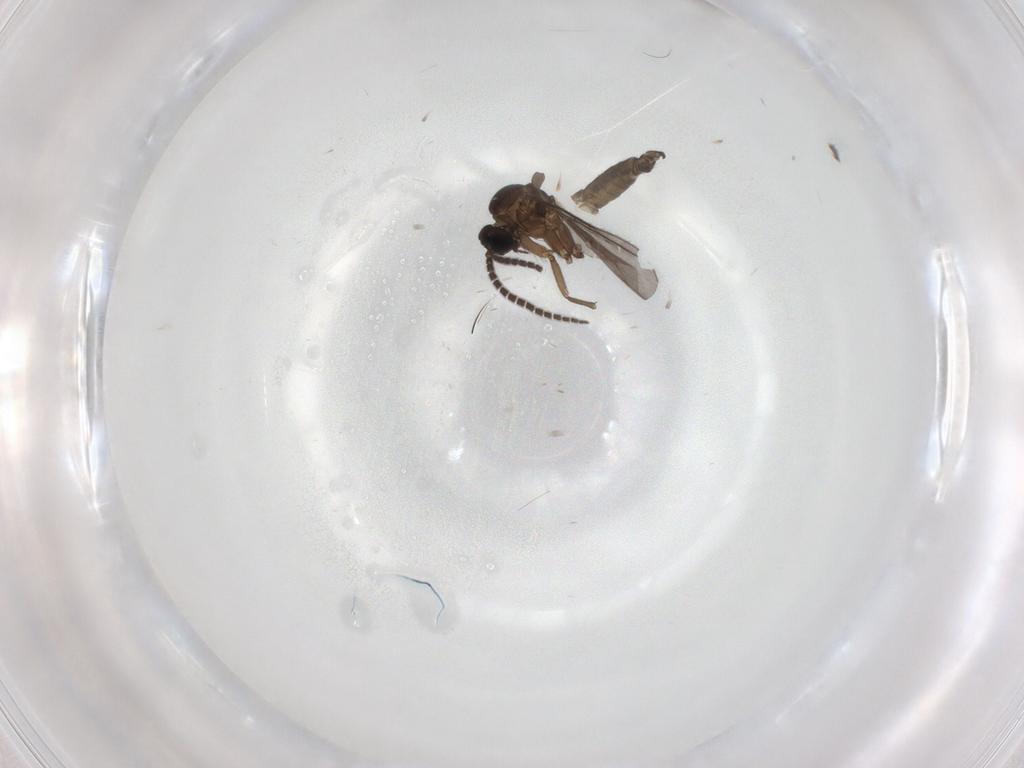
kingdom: Animalia
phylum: Arthropoda
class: Insecta
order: Diptera
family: Sciaridae
